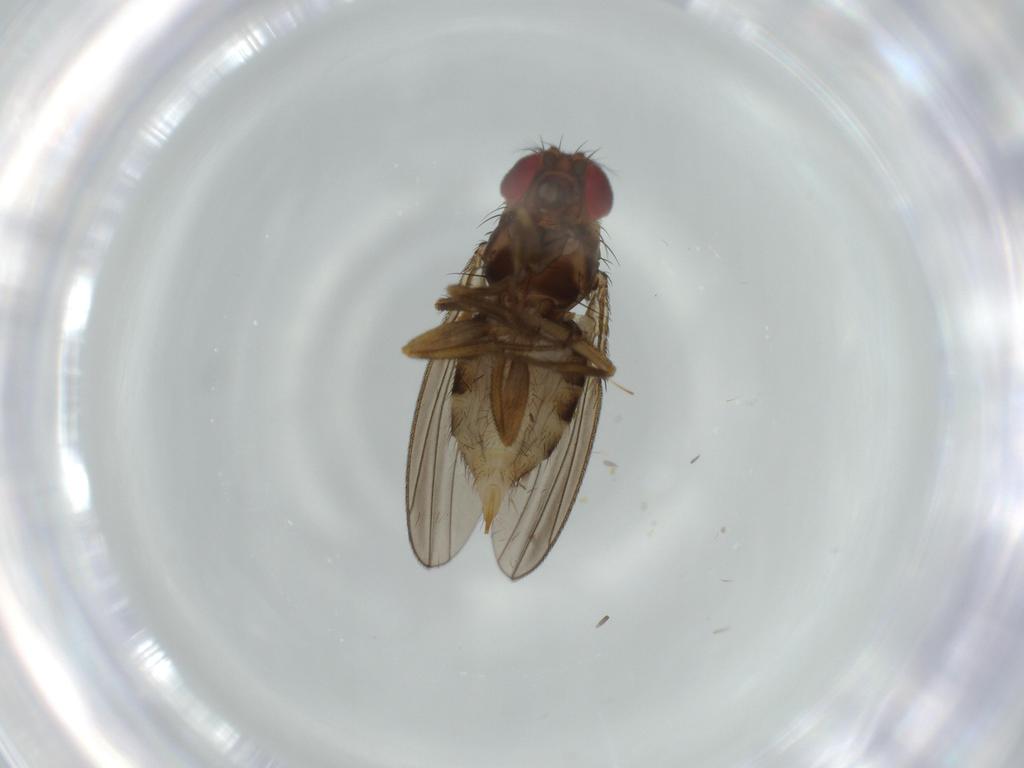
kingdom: Animalia
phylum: Arthropoda
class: Insecta
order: Diptera
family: Sciaridae
